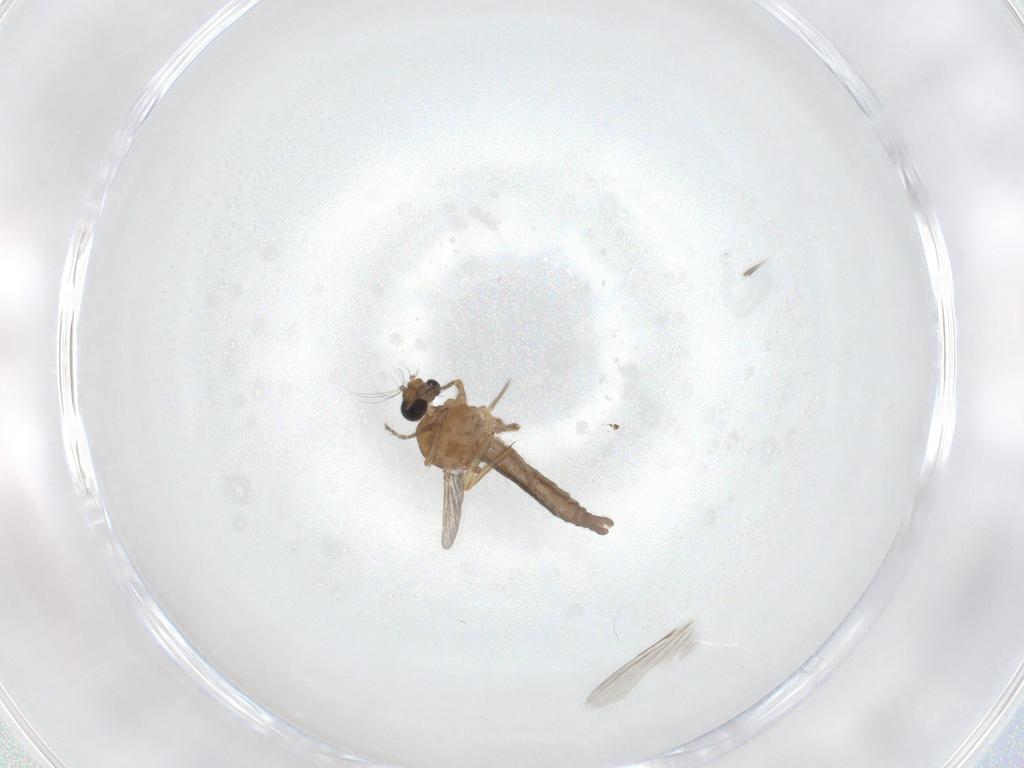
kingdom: Animalia
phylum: Arthropoda
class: Insecta
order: Diptera
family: Ceratopogonidae
